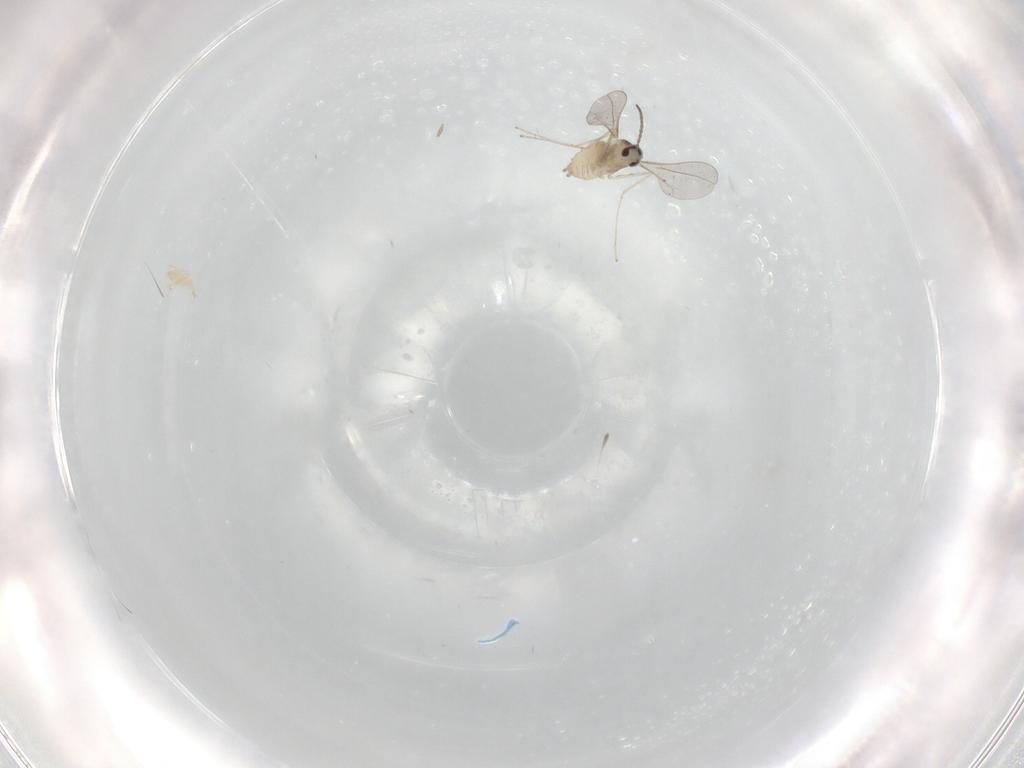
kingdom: Animalia
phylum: Arthropoda
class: Insecta
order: Diptera
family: Cecidomyiidae
